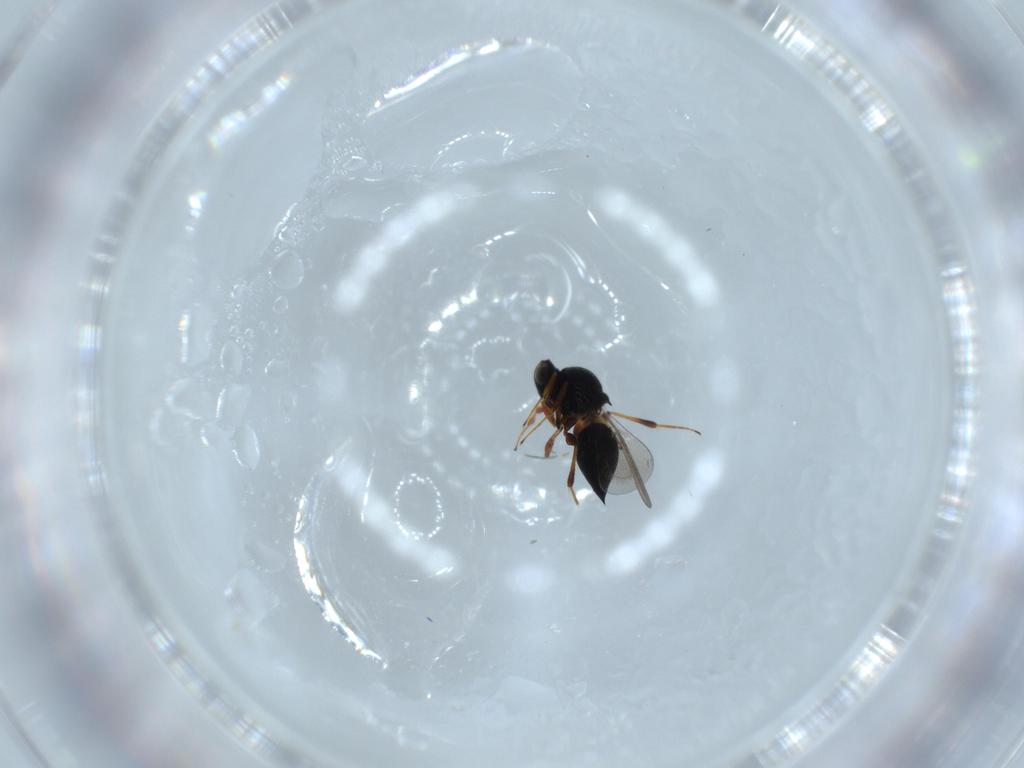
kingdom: Animalia
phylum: Arthropoda
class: Insecta
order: Hymenoptera
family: Platygastridae
